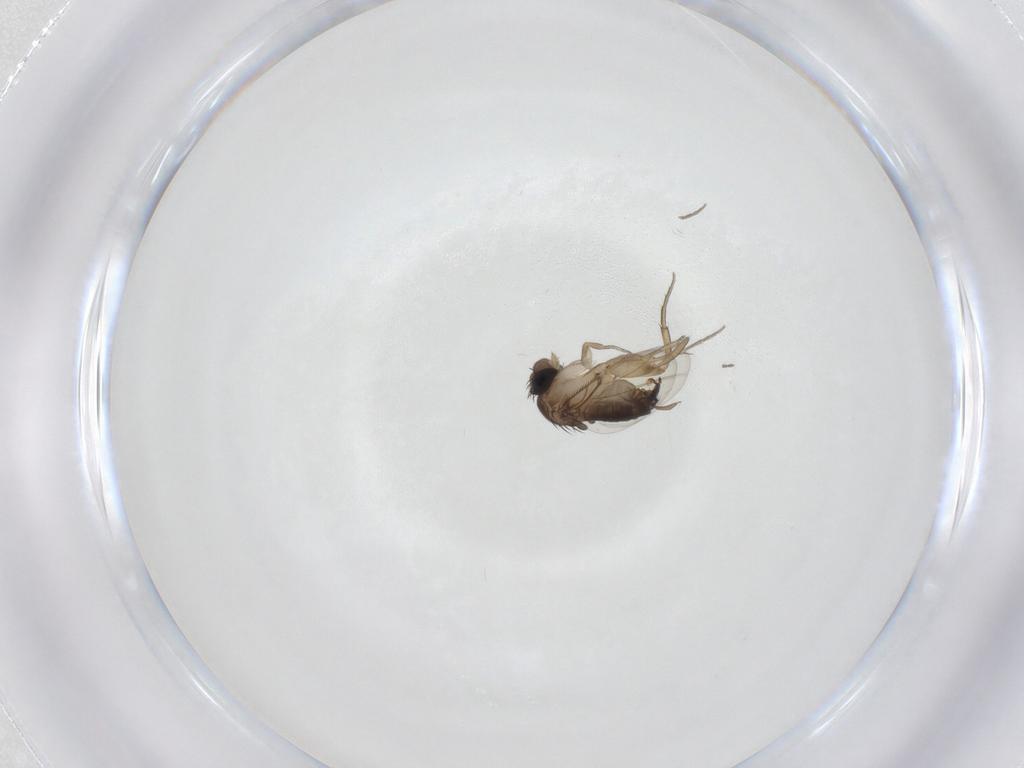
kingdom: Animalia
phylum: Arthropoda
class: Insecta
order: Diptera
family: Cecidomyiidae
